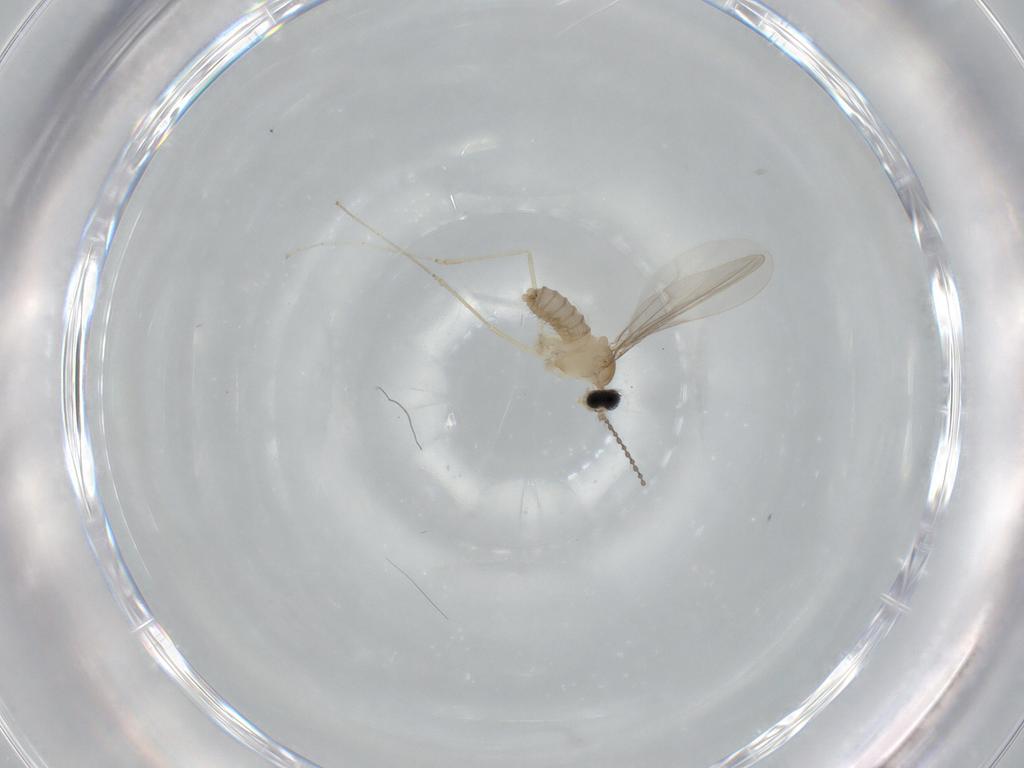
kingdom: Animalia
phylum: Arthropoda
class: Insecta
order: Diptera
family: Cecidomyiidae
